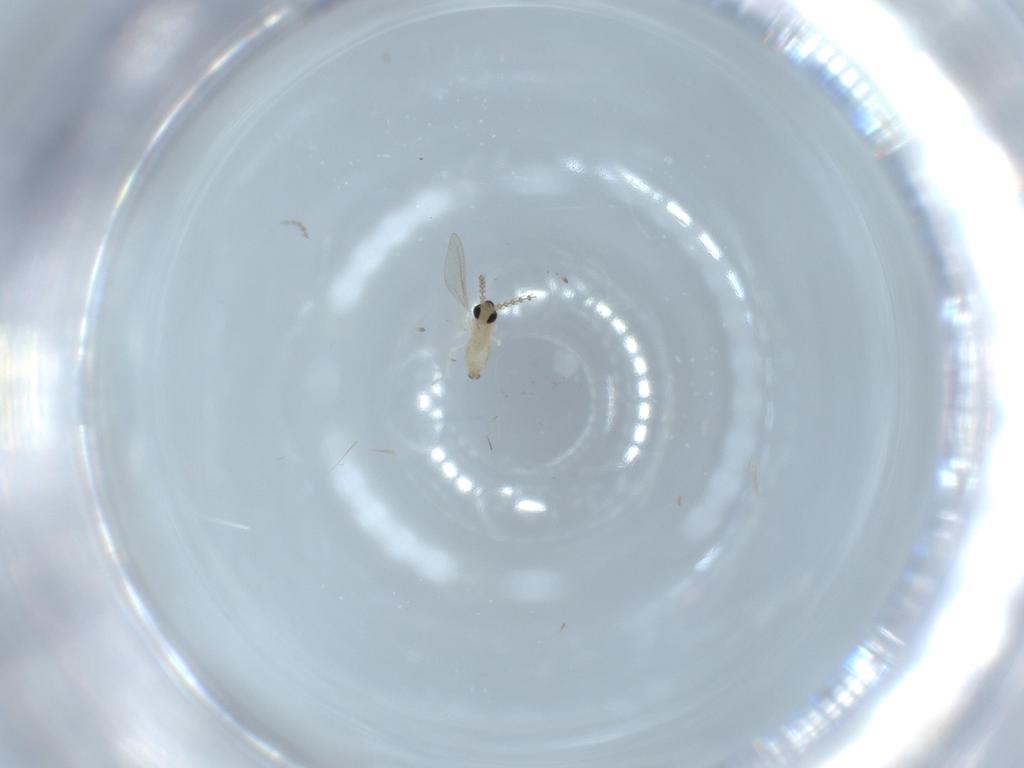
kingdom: Animalia
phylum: Arthropoda
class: Insecta
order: Diptera
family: Cecidomyiidae
